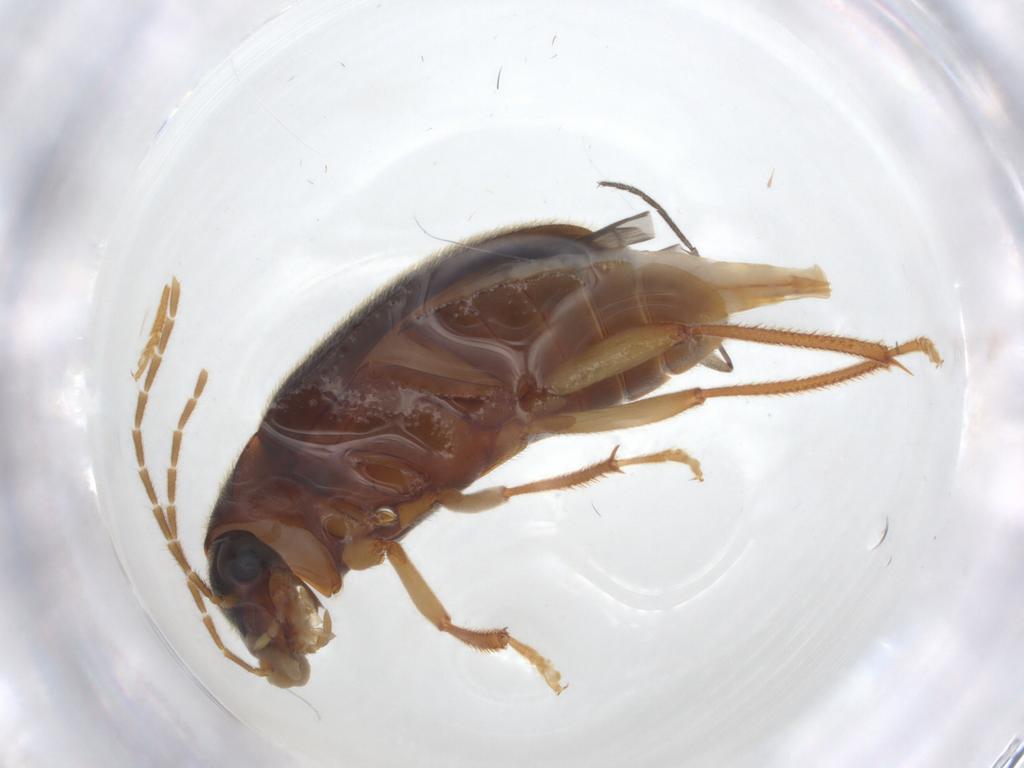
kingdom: Animalia
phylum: Arthropoda
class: Insecta
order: Coleoptera
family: Ptilodactylidae
